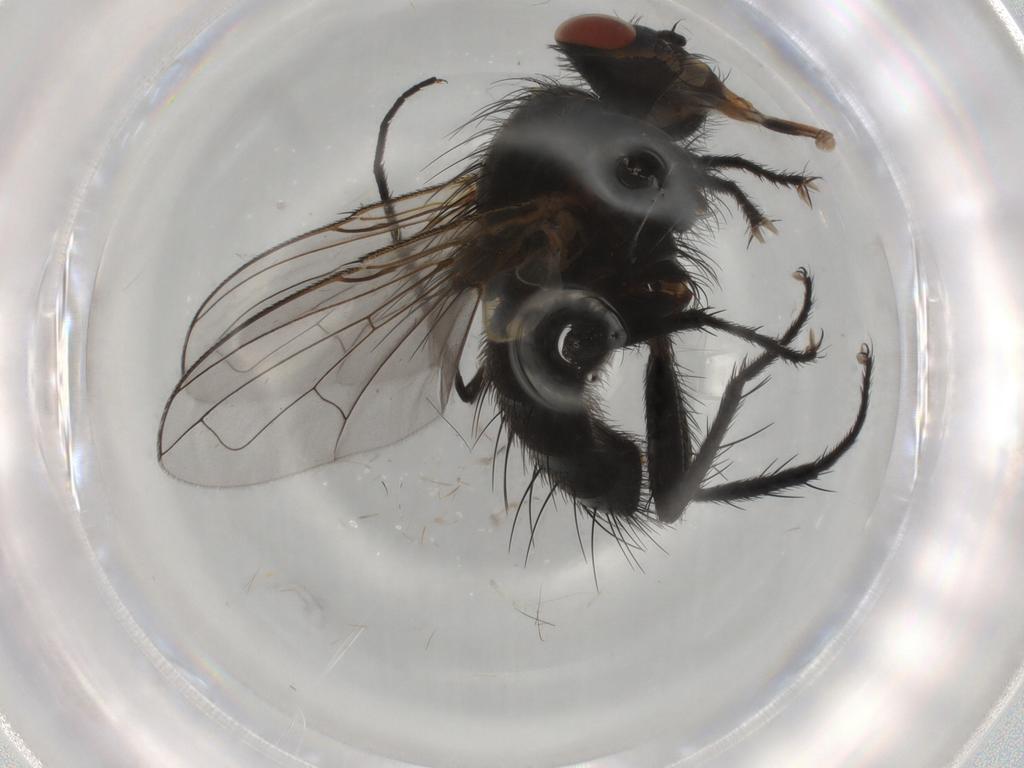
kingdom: Animalia
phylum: Arthropoda
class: Insecta
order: Diptera
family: Tachinidae
